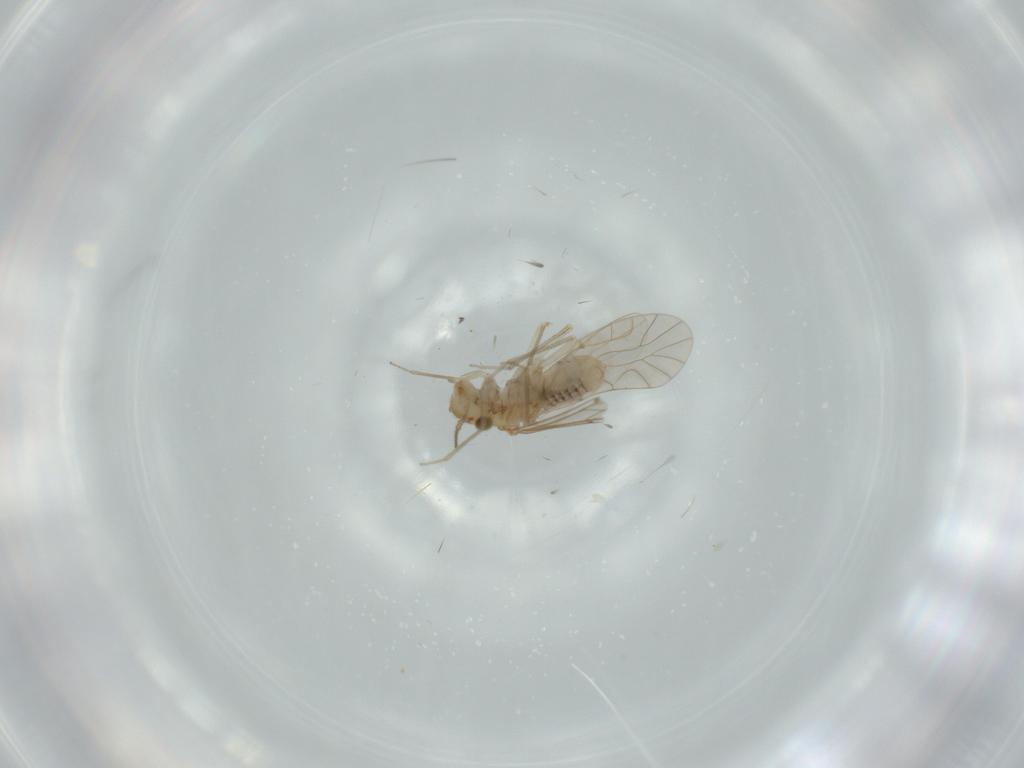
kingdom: Animalia
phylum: Arthropoda
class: Insecta
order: Psocodea
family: Lachesillidae
